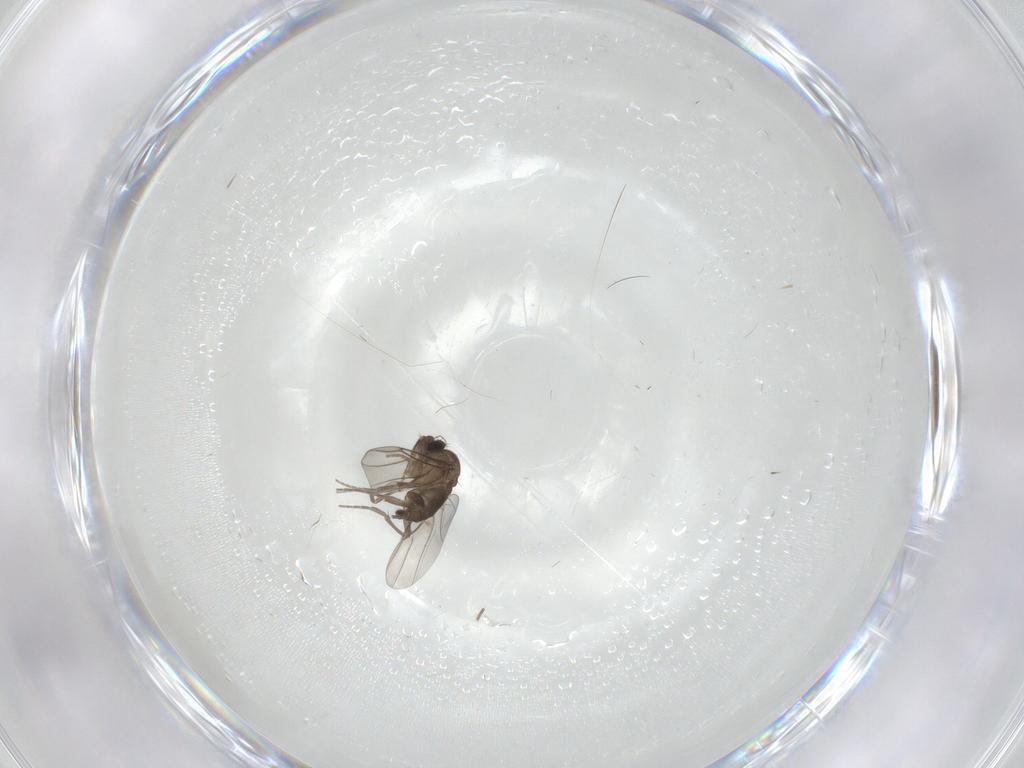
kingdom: Animalia
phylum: Arthropoda
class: Insecta
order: Diptera
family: Phoridae
